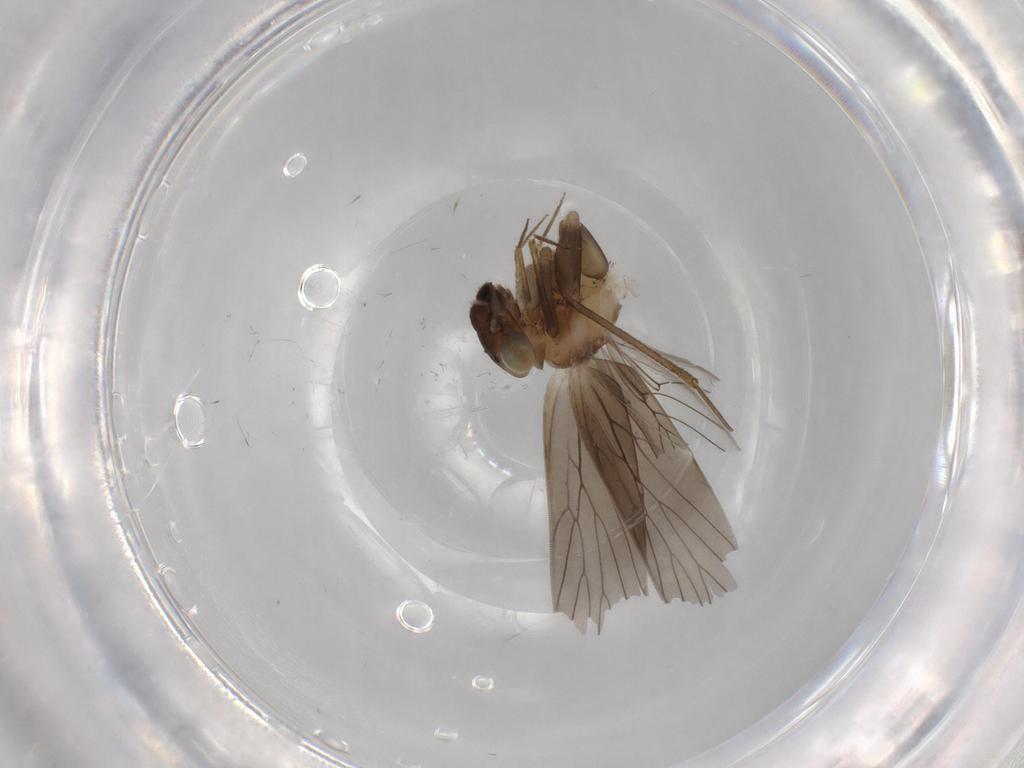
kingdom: Animalia
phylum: Arthropoda
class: Insecta
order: Psocodea
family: Lepidopsocidae
